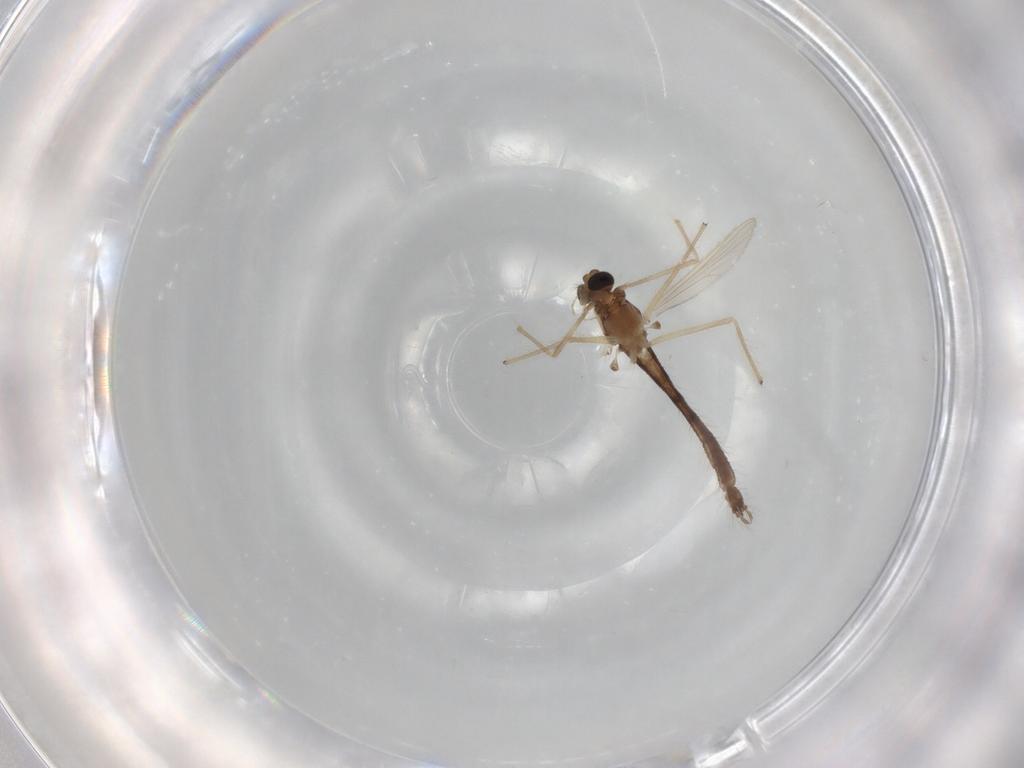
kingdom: Animalia
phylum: Arthropoda
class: Insecta
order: Diptera
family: Chironomidae
